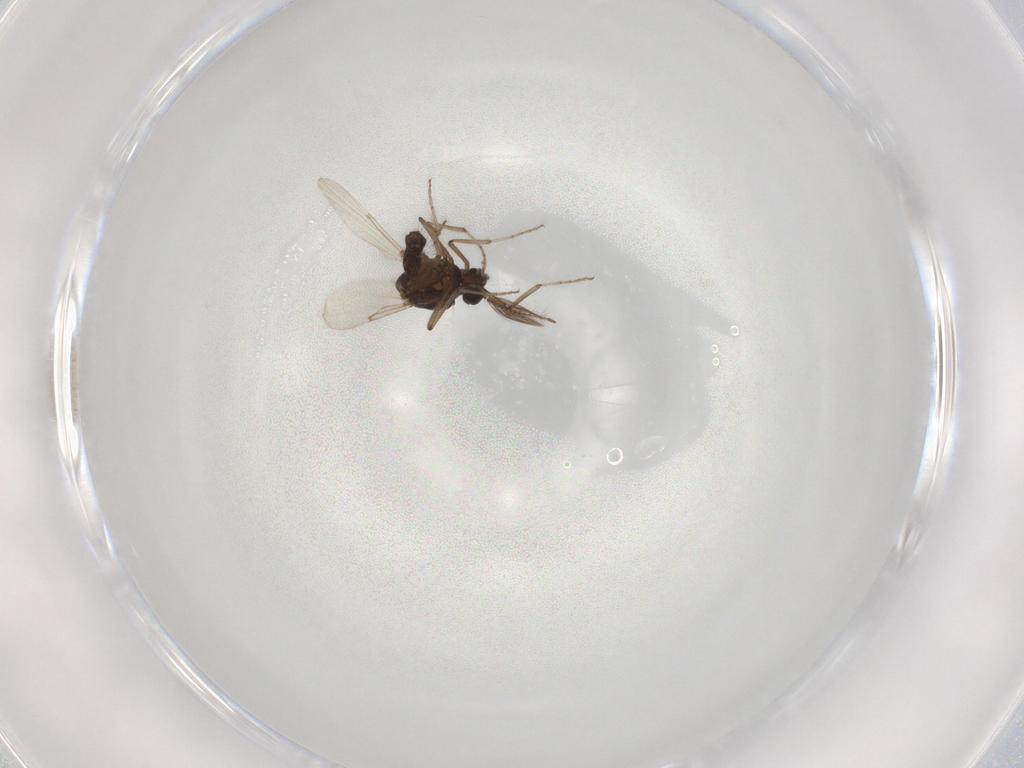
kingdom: Animalia
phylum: Arthropoda
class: Insecta
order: Diptera
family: Chironomidae
